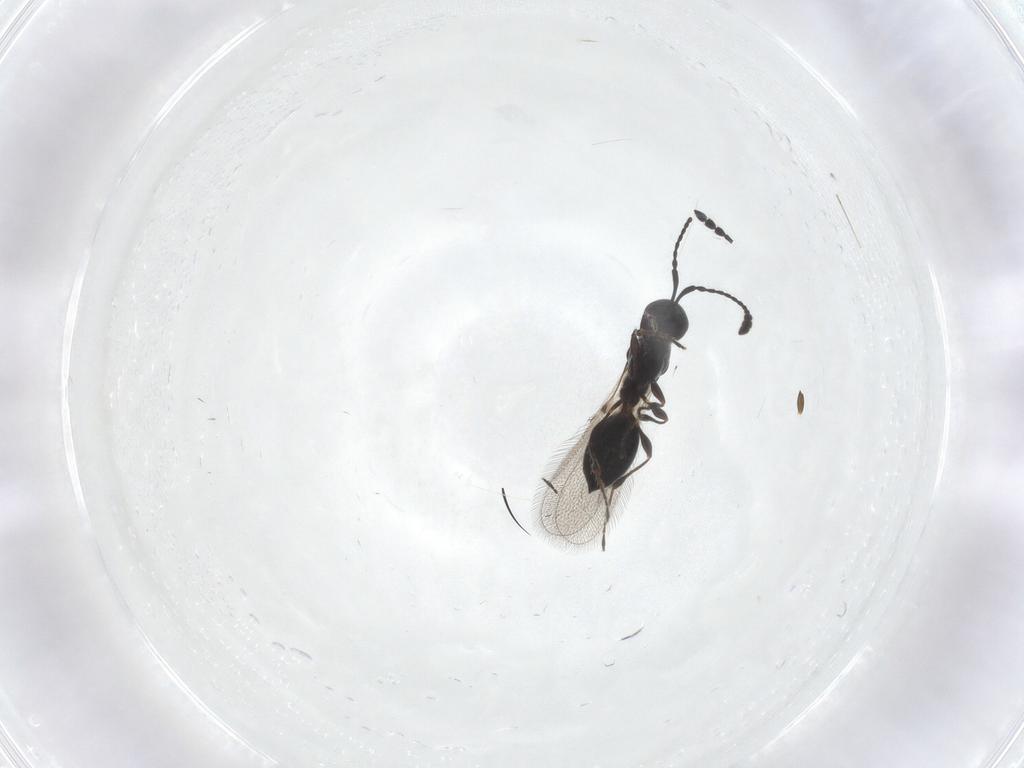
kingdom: Animalia
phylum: Arthropoda
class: Insecta
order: Hymenoptera
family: Diapriidae
